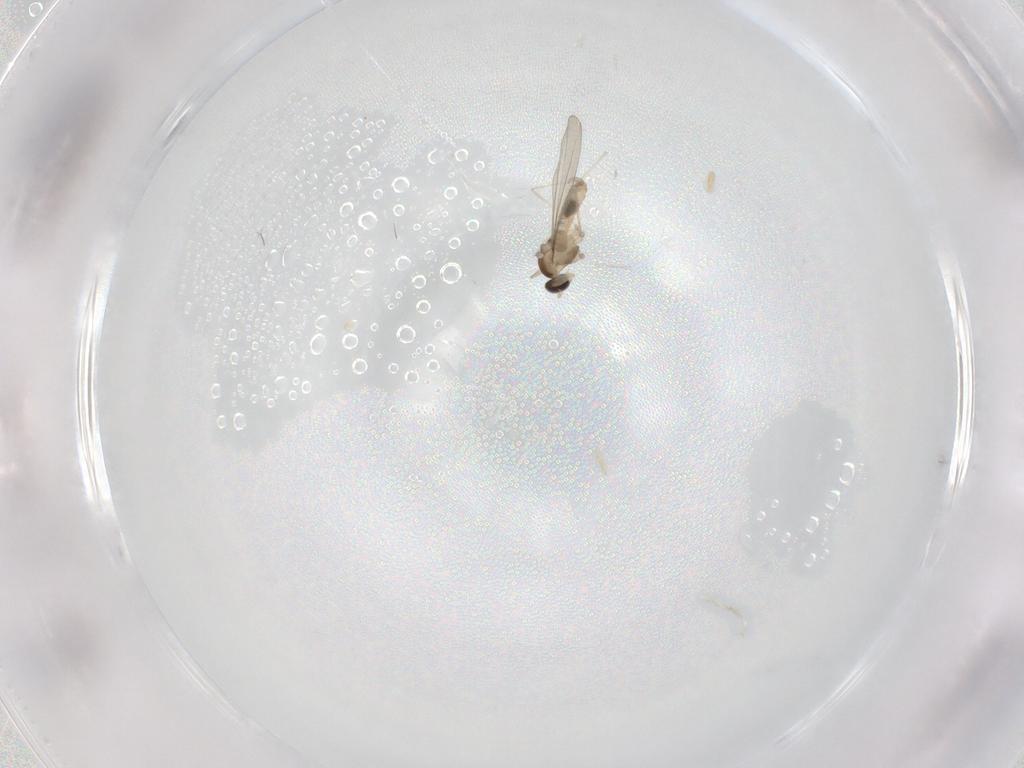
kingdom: Animalia
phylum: Arthropoda
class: Insecta
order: Diptera
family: Cecidomyiidae
